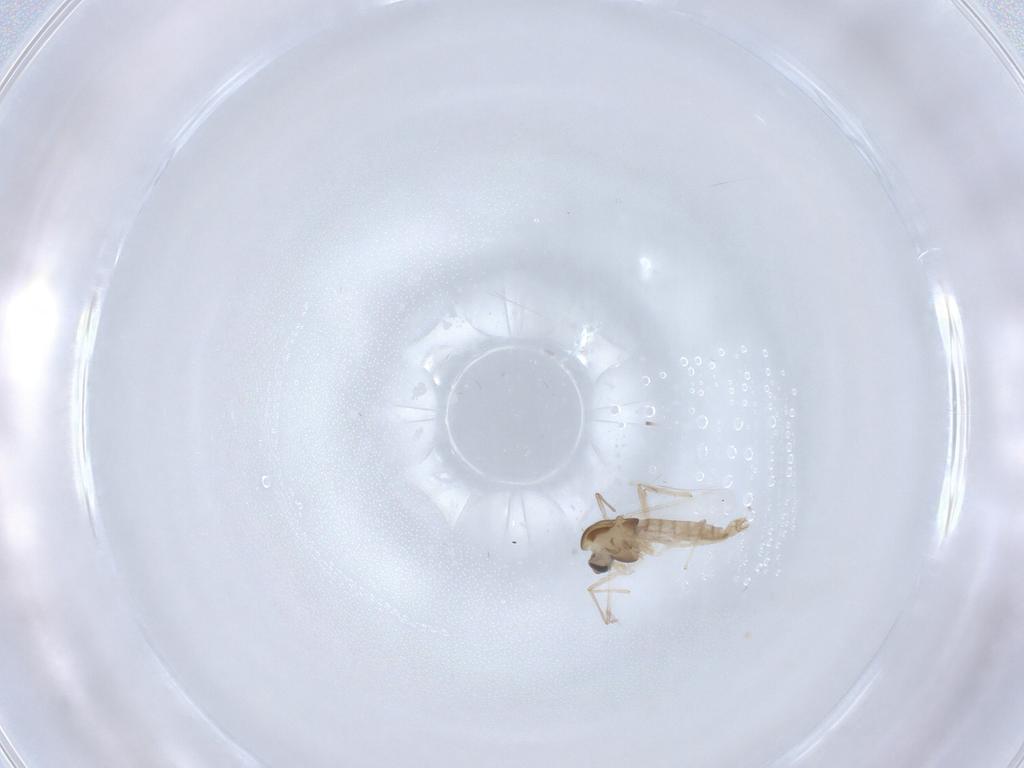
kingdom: Animalia
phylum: Arthropoda
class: Insecta
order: Diptera
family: Chironomidae
